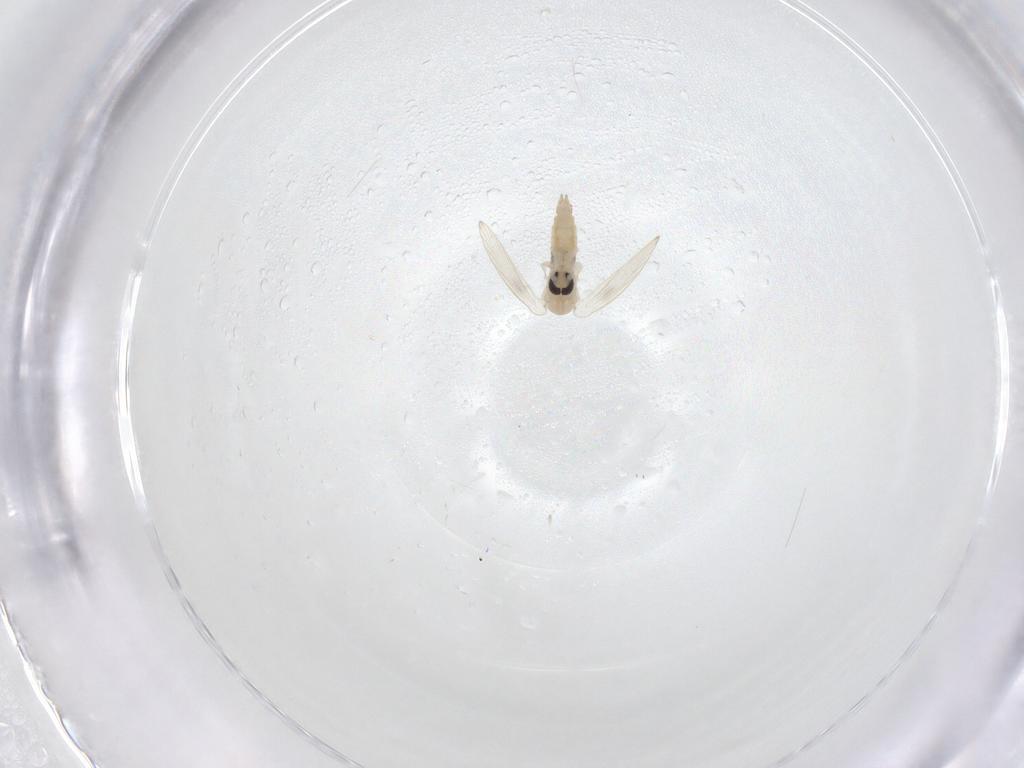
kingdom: Animalia
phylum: Arthropoda
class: Insecta
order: Diptera
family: Psychodidae
